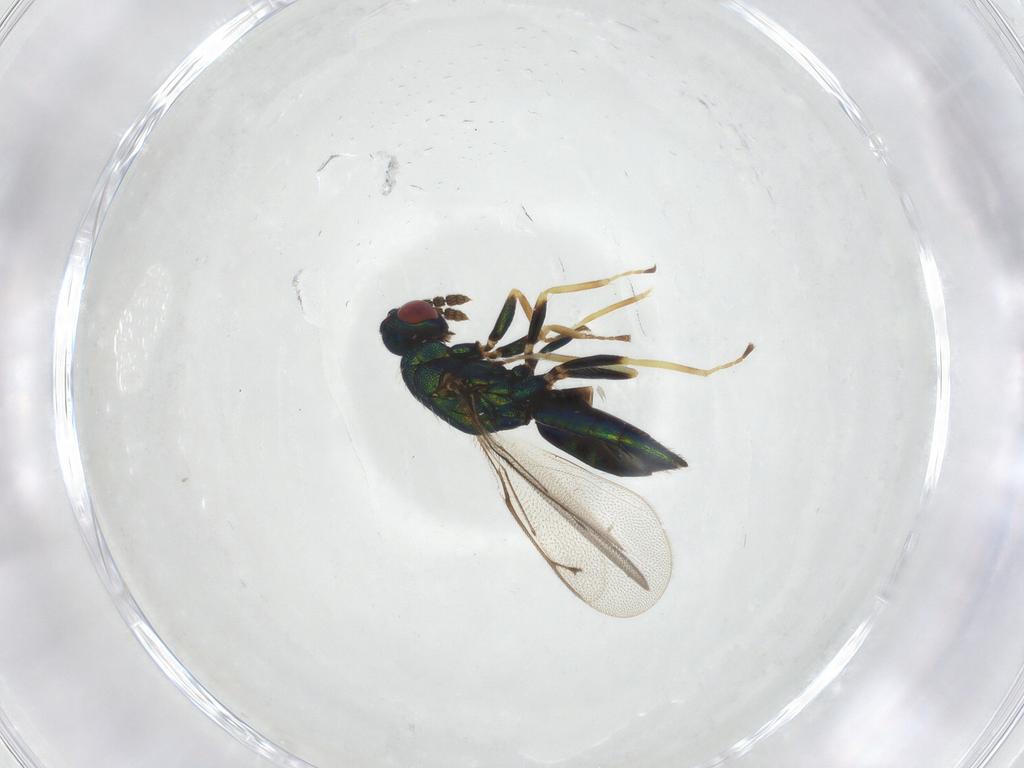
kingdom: Animalia
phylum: Arthropoda
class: Insecta
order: Hymenoptera
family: Eulophidae
